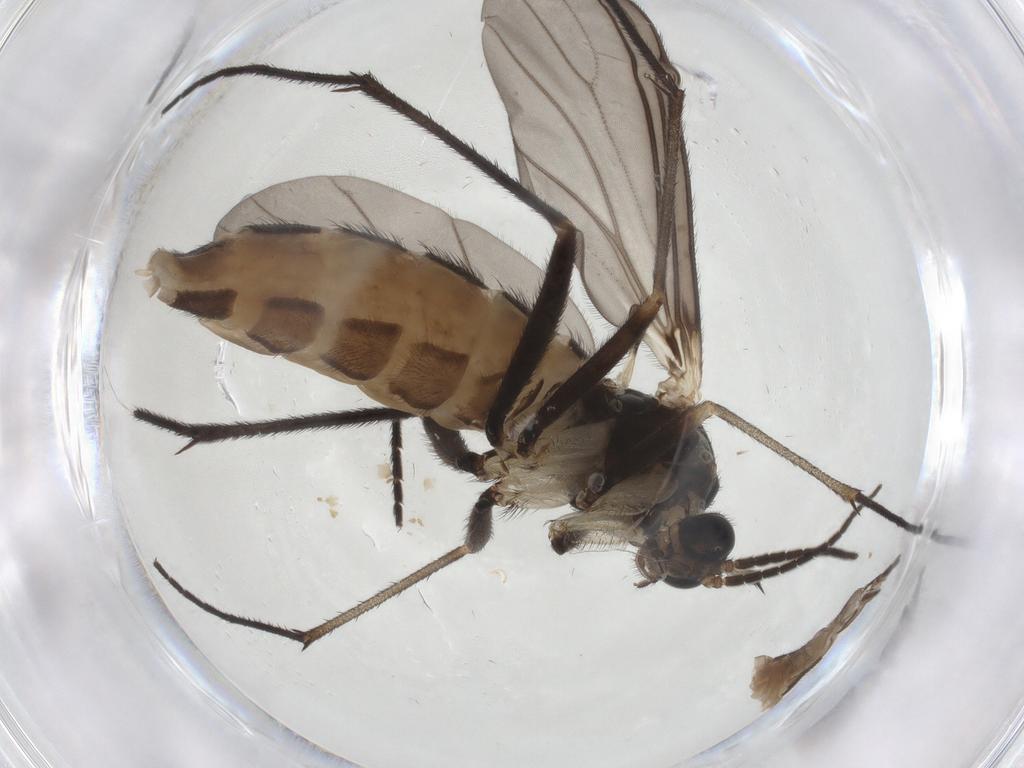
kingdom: Animalia
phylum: Arthropoda
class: Insecta
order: Diptera
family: Sciaridae
